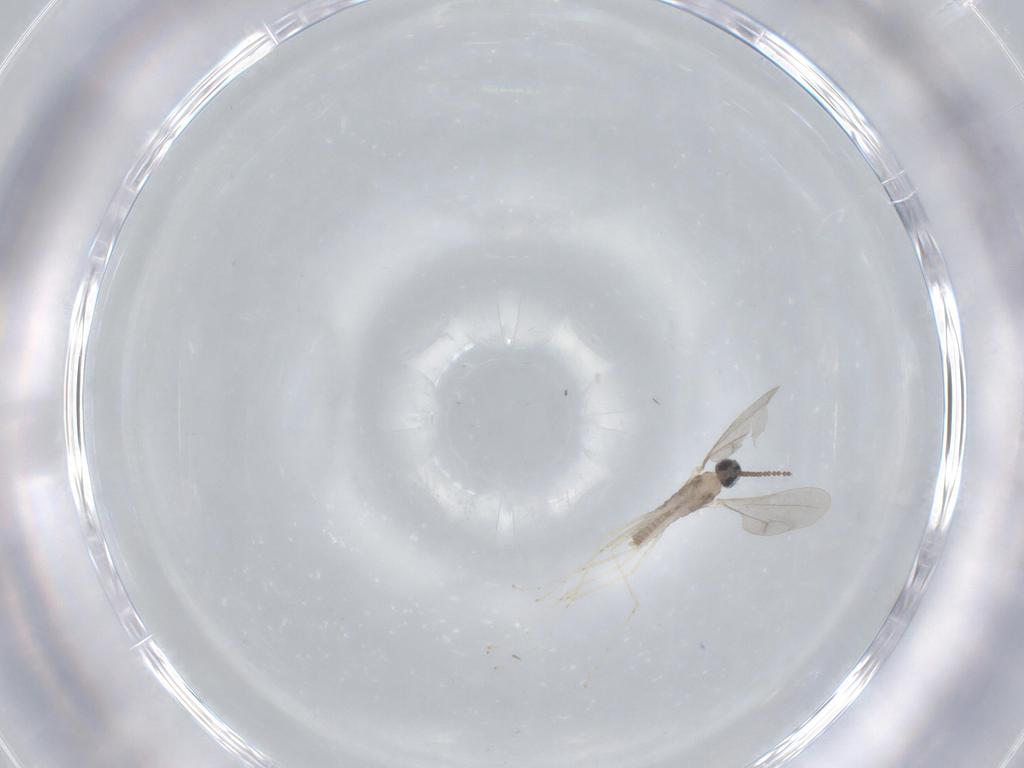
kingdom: Animalia
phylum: Arthropoda
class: Insecta
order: Diptera
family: Cecidomyiidae
